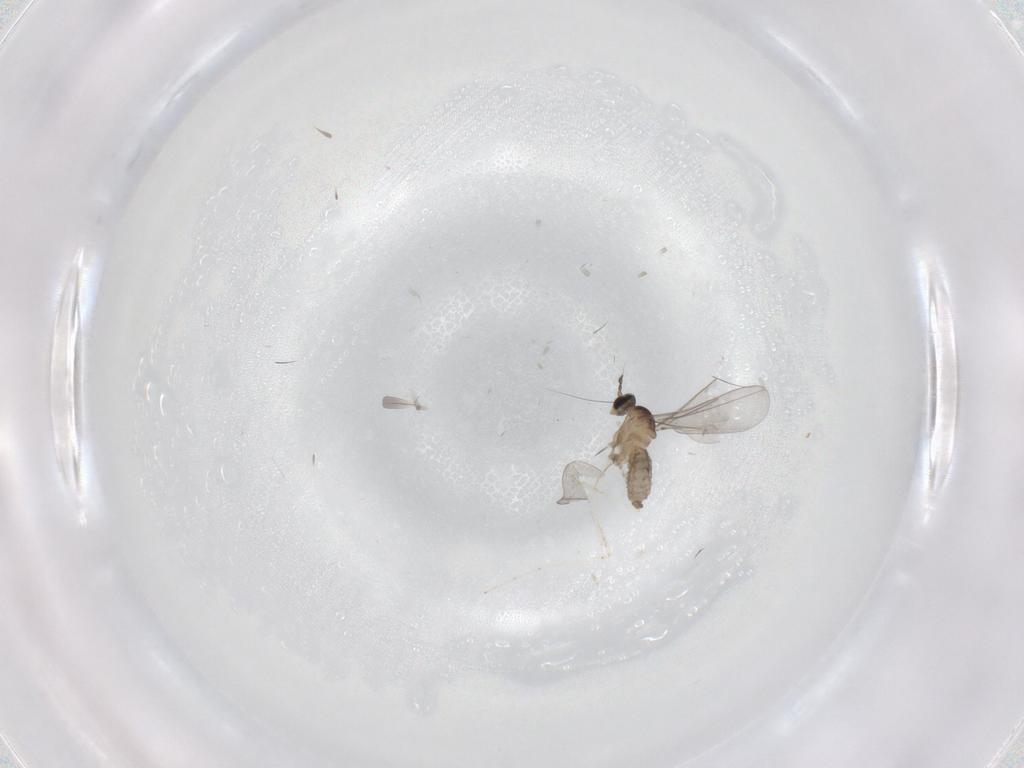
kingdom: Animalia
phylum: Arthropoda
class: Insecta
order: Diptera
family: Cecidomyiidae
